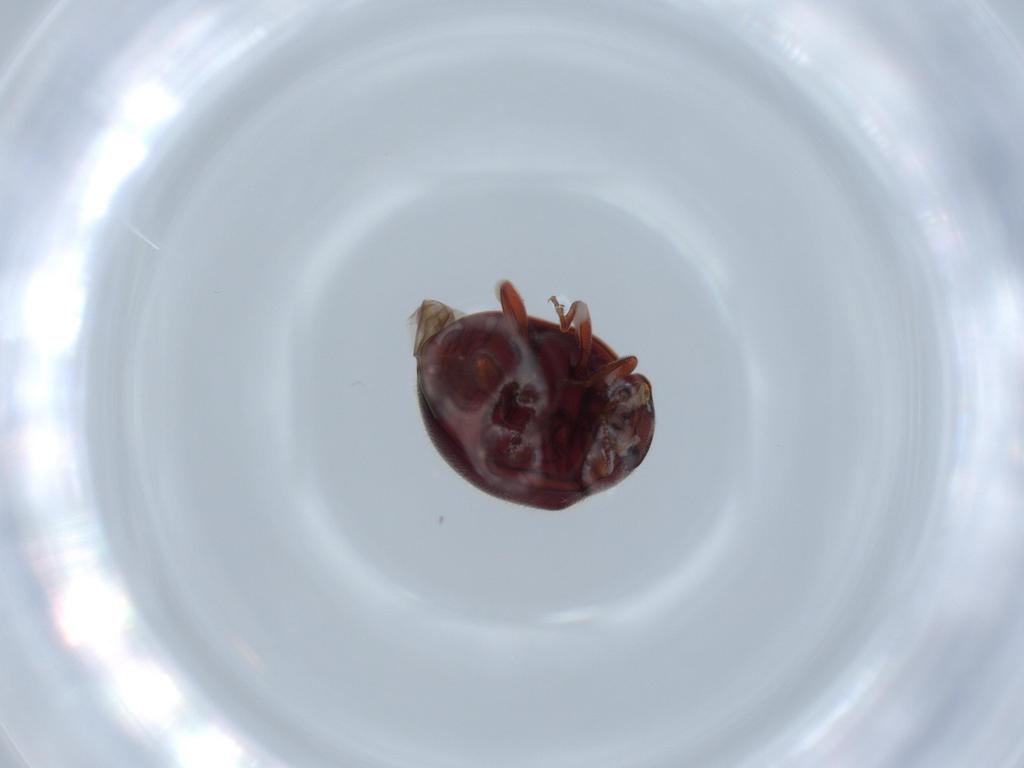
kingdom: Animalia
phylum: Arthropoda
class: Insecta
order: Coleoptera
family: Coccinellidae
